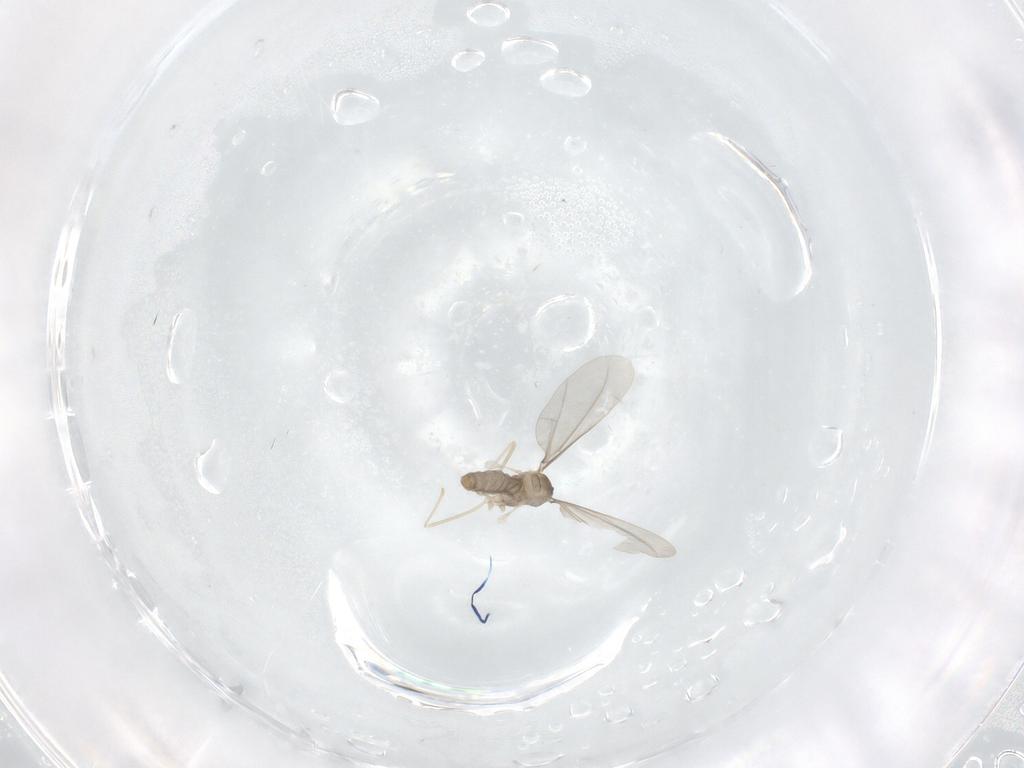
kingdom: Animalia
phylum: Arthropoda
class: Insecta
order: Diptera
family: Cecidomyiidae
